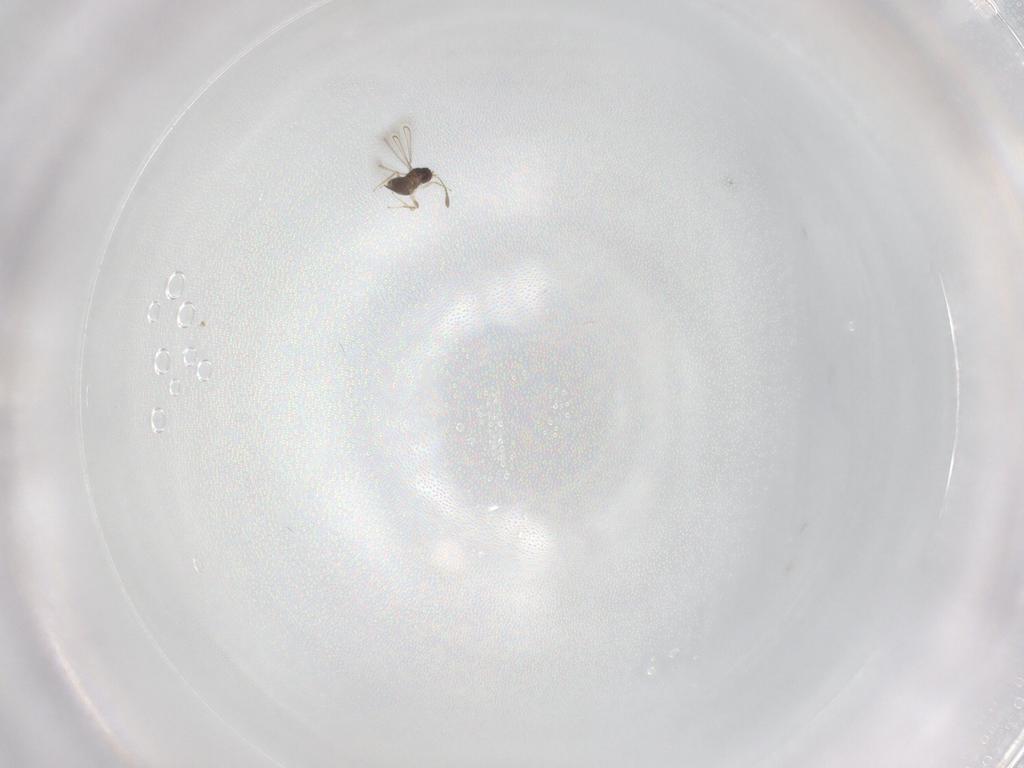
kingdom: Animalia
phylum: Arthropoda
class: Insecta
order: Hymenoptera
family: Mymaridae
